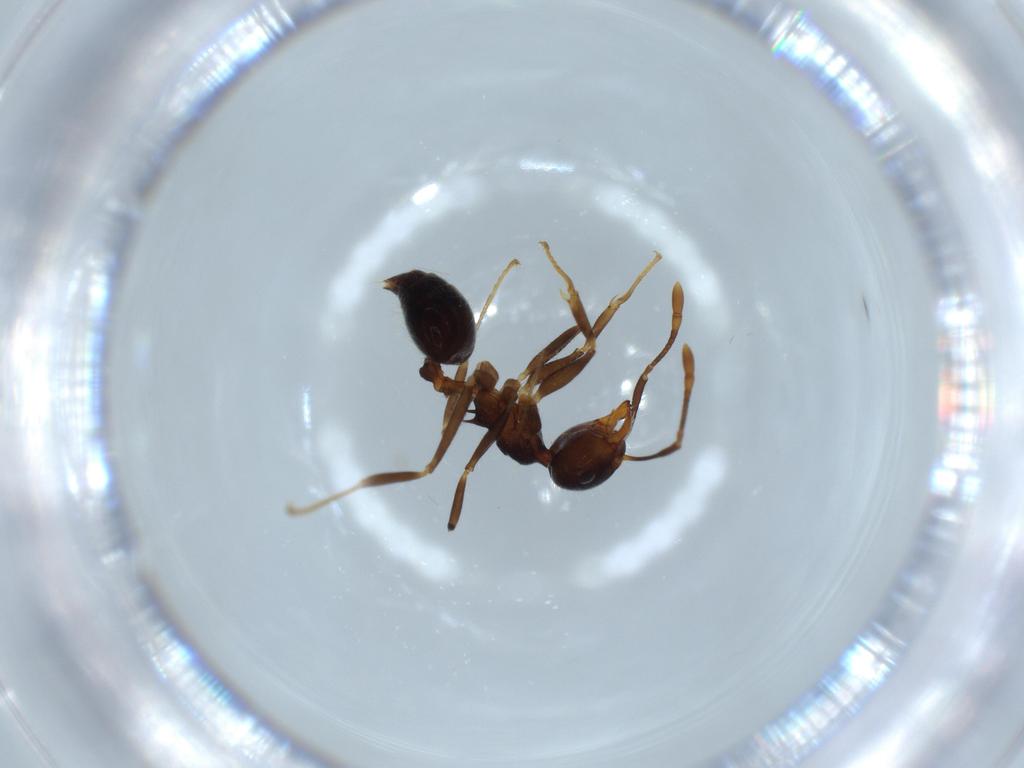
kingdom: Animalia
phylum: Arthropoda
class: Insecta
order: Hymenoptera
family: Formicidae
